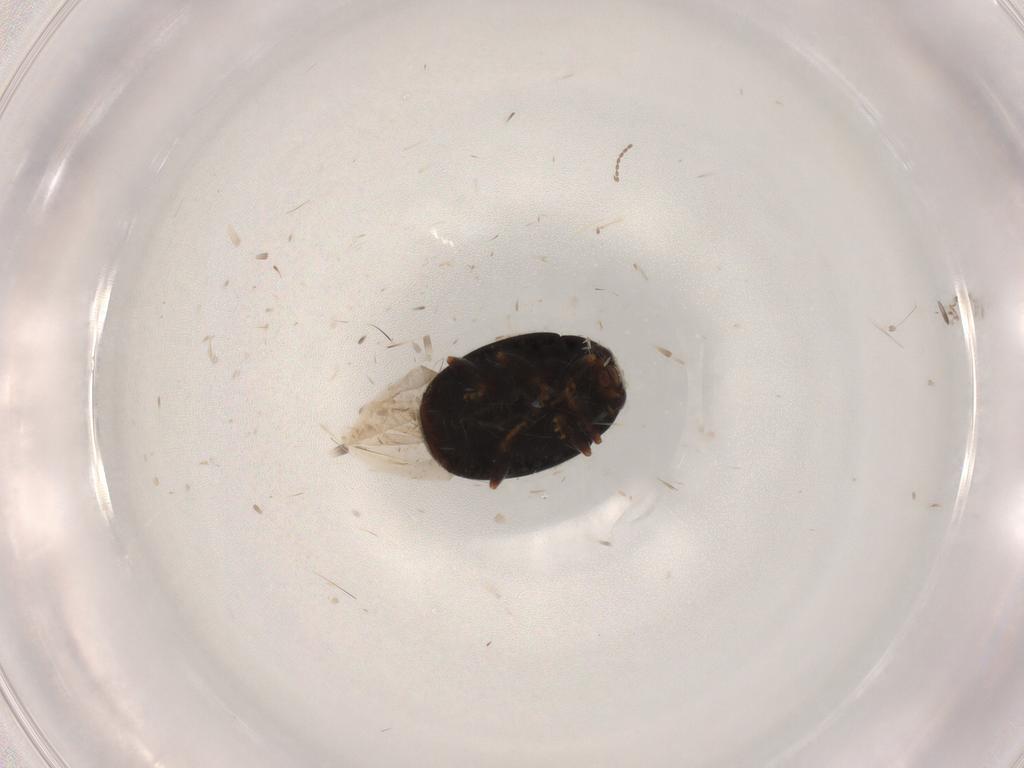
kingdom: Animalia
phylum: Arthropoda
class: Insecta
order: Coleoptera
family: Coccinellidae
